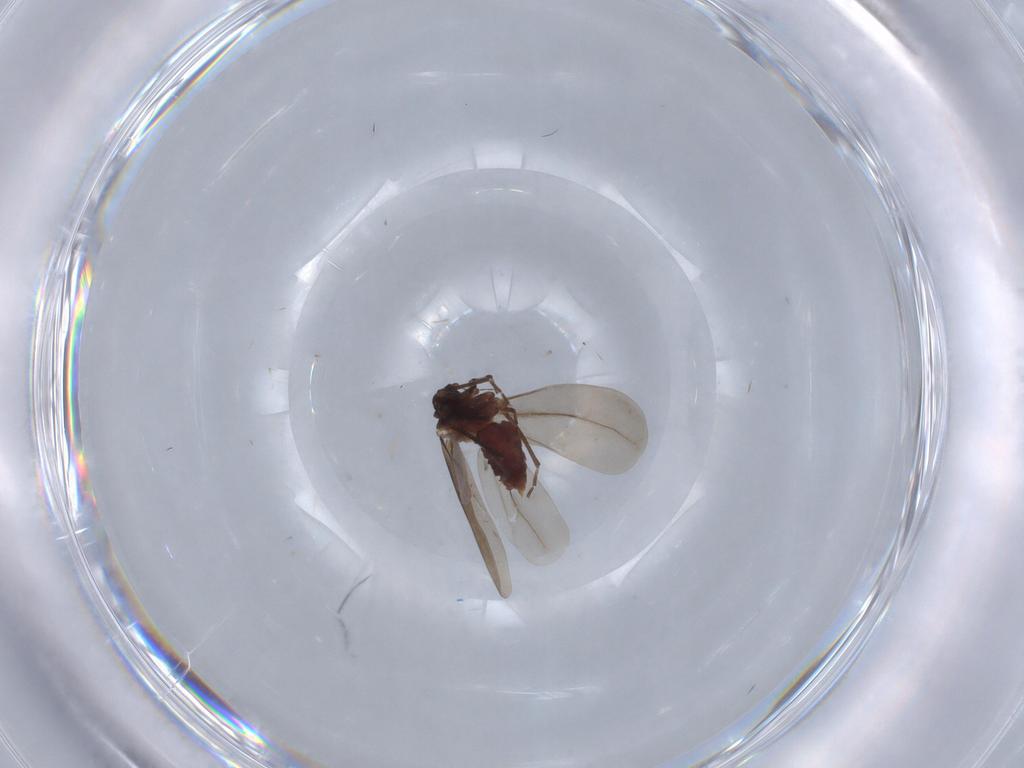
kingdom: Animalia
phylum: Arthropoda
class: Insecta
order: Hemiptera
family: Aleyrodidae
